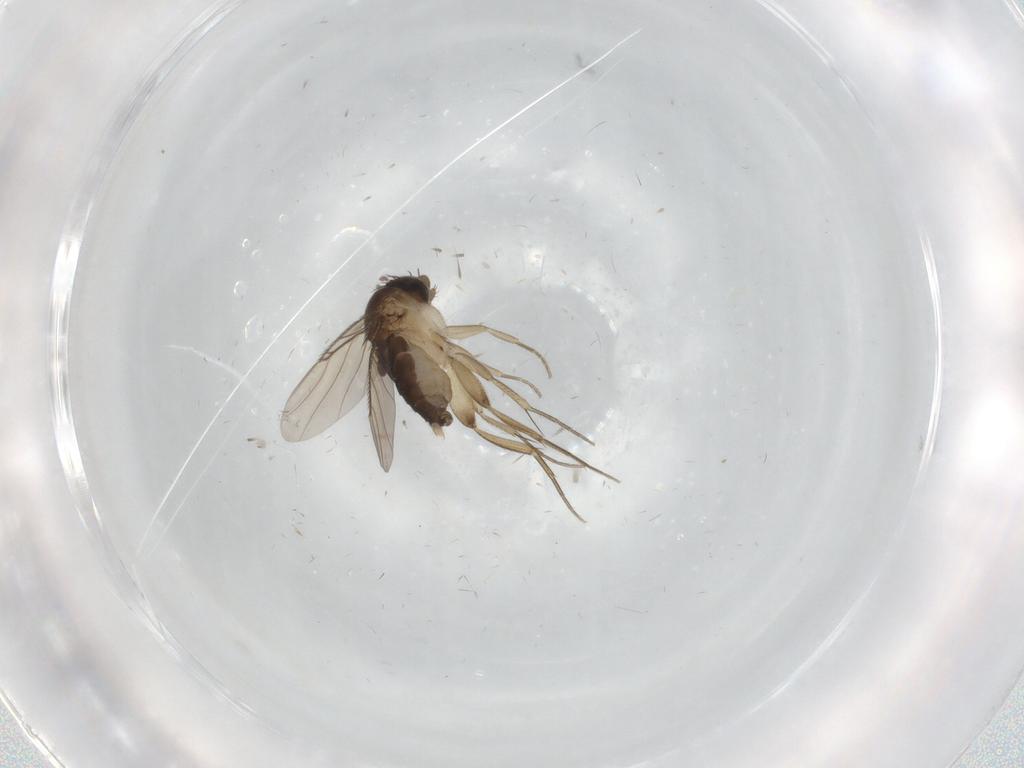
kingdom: Animalia
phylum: Arthropoda
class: Insecta
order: Diptera
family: Phoridae
